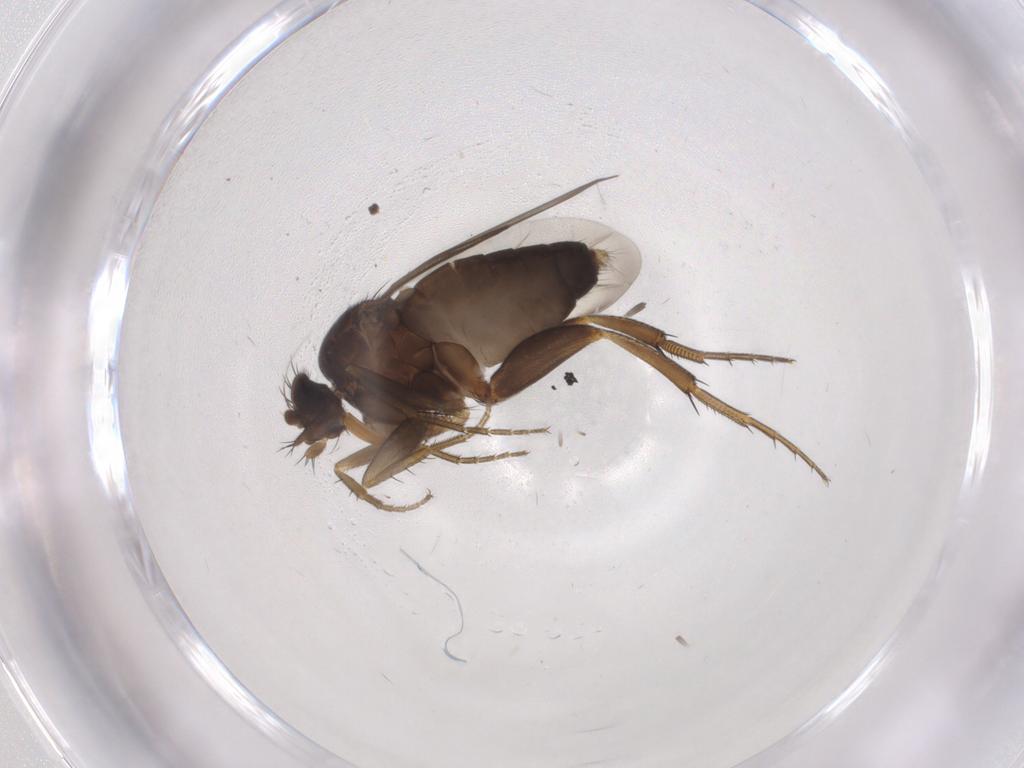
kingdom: Animalia
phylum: Arthropoda
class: Insecta
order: Diptera
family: Phoridae
